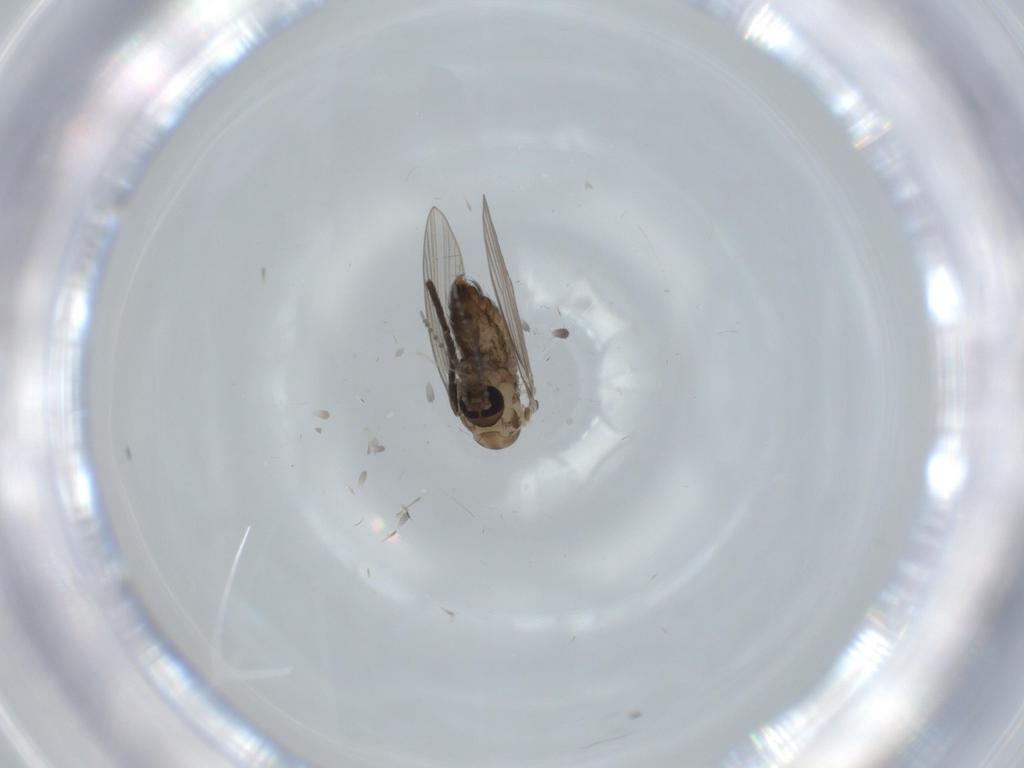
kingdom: Animalia
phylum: Arthropoda
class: Insecta
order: Diptera
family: Psychodidae
